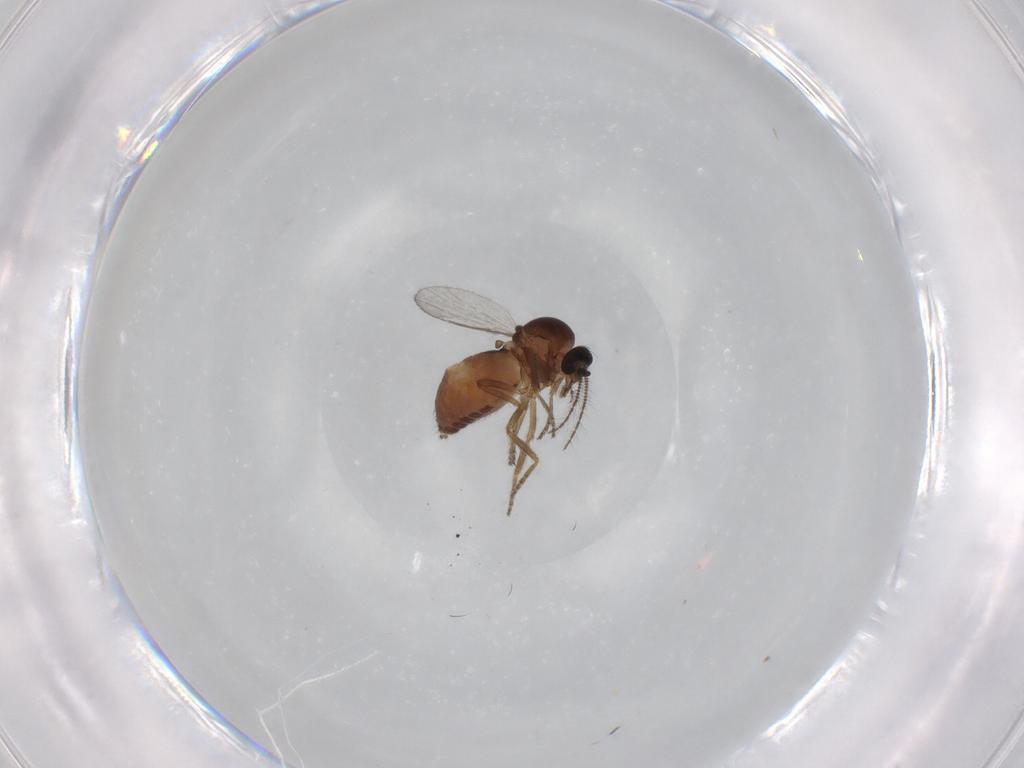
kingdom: Animalia
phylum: Arthropoda
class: Insecta
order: Diptera
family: Ceratopogonidae
